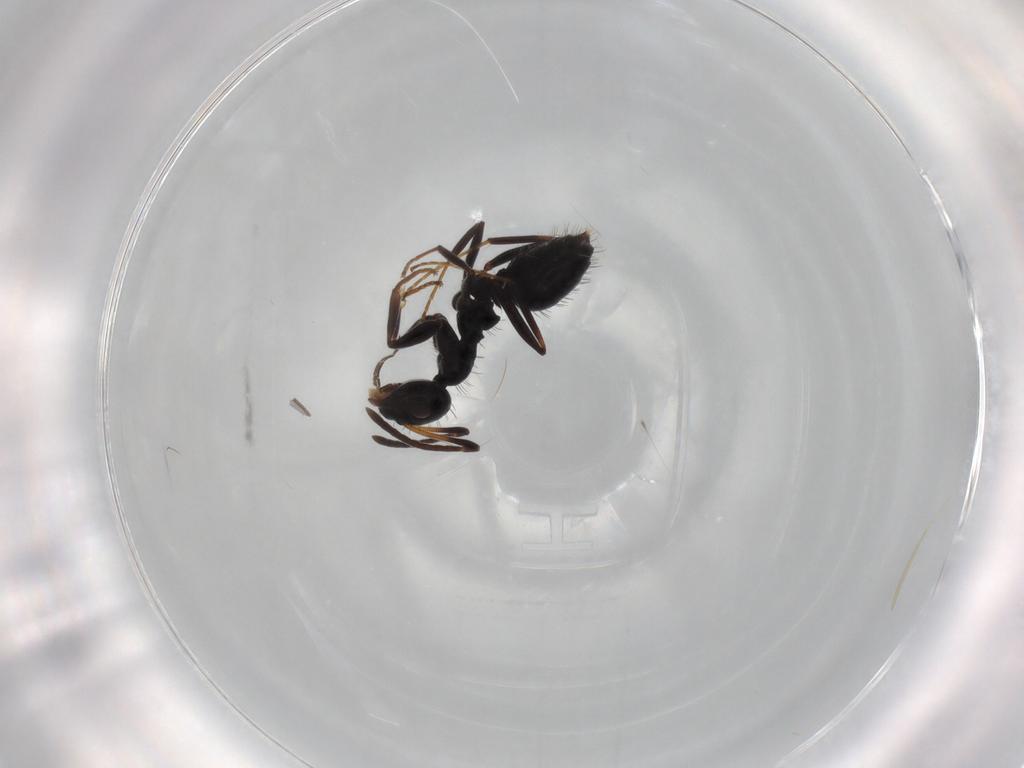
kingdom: Animalia
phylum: Arthropoda
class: Insecta
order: Hymenoptera
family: Formicidae
